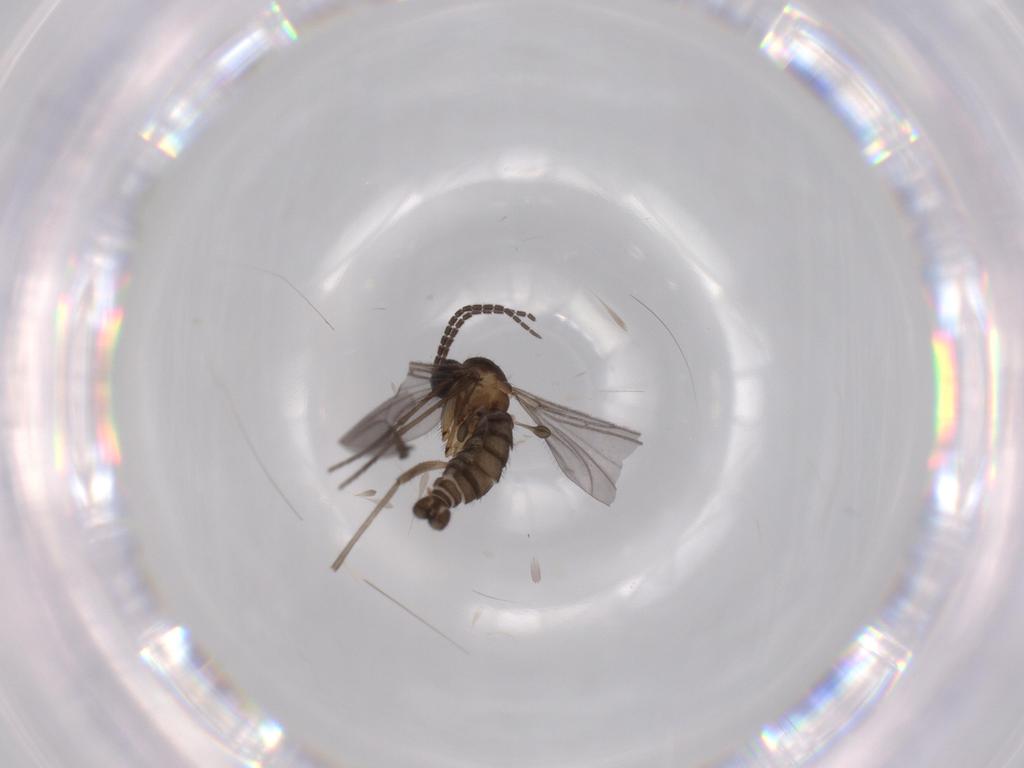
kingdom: Animalia
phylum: Arthropoda
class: Insecta
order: Diptera
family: Sciaridae
